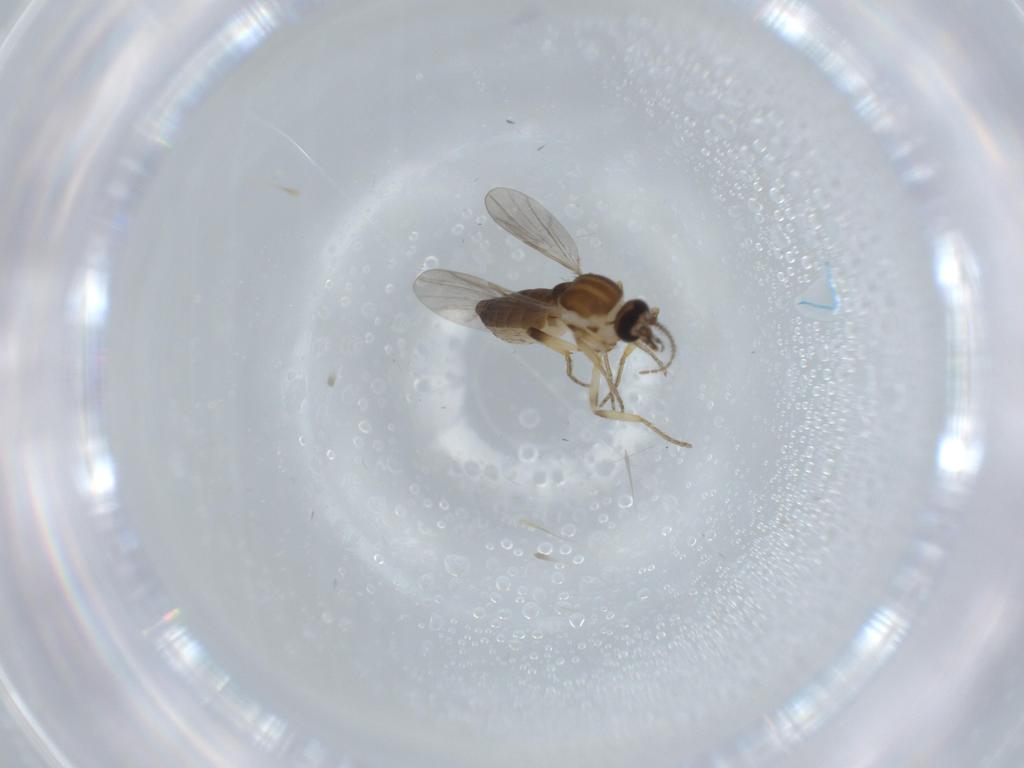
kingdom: Animalia
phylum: Arthropoda
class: Insecta
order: Diptera
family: Ceratopogonidae
